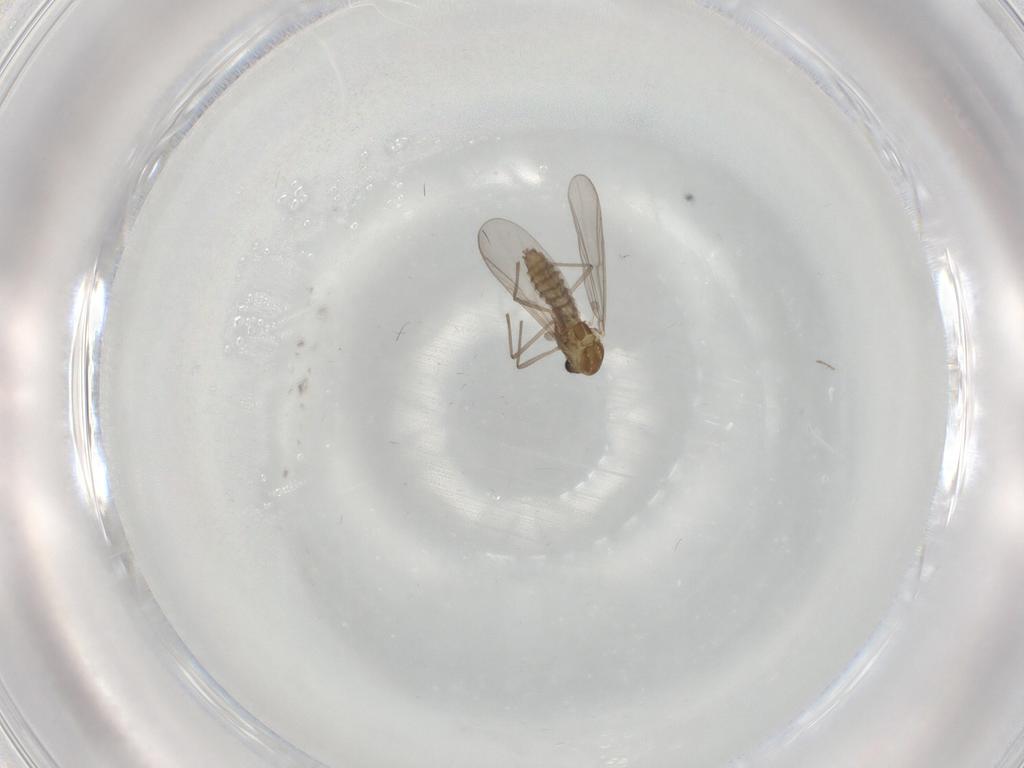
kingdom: Animalia
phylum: Arthropoda
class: Insecta
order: Diptera
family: Chironomidae
